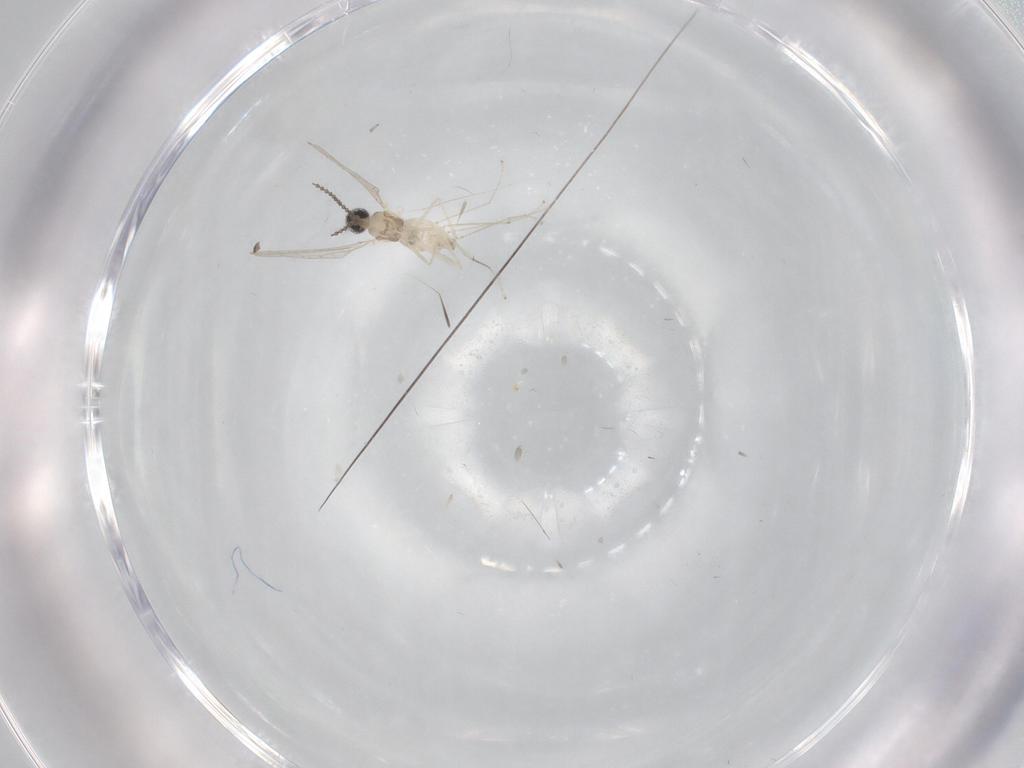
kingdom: Animalia
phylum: Arthropoda
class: Insecta
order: Diptera
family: Cecidomyiidae
